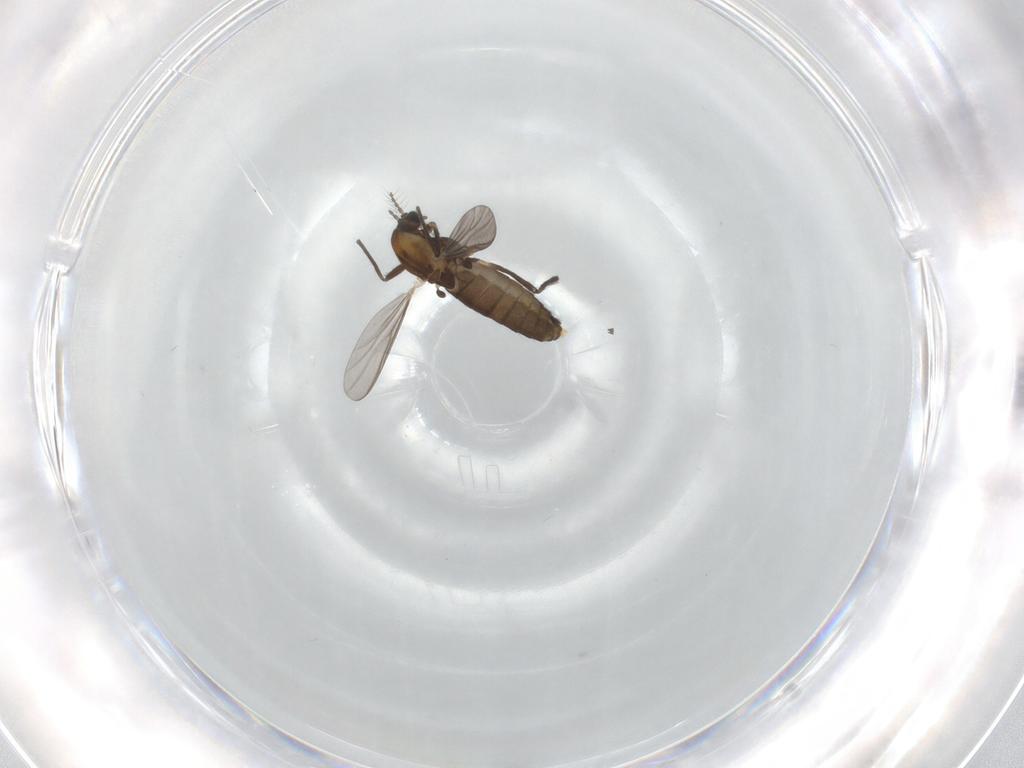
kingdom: Animalia
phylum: Arthropoda
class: Insecta
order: Diptera
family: Chironomidae
